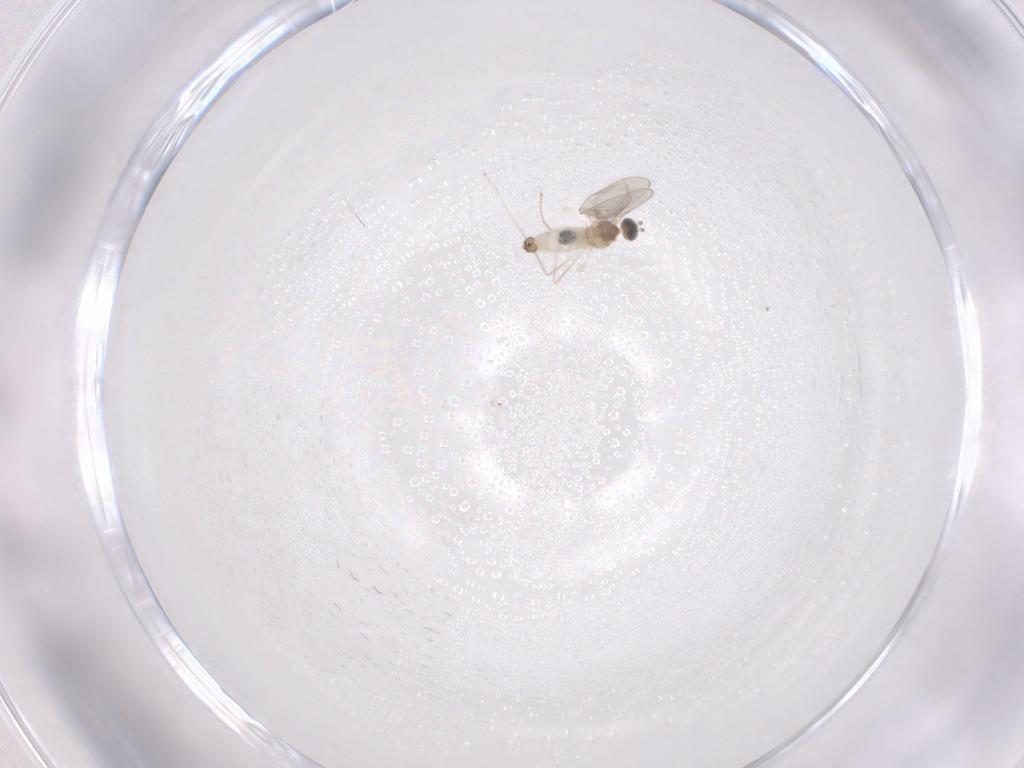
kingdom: Animalia
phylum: Arthropoda
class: Insecta
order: Diptera
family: Cecidomyiidae
